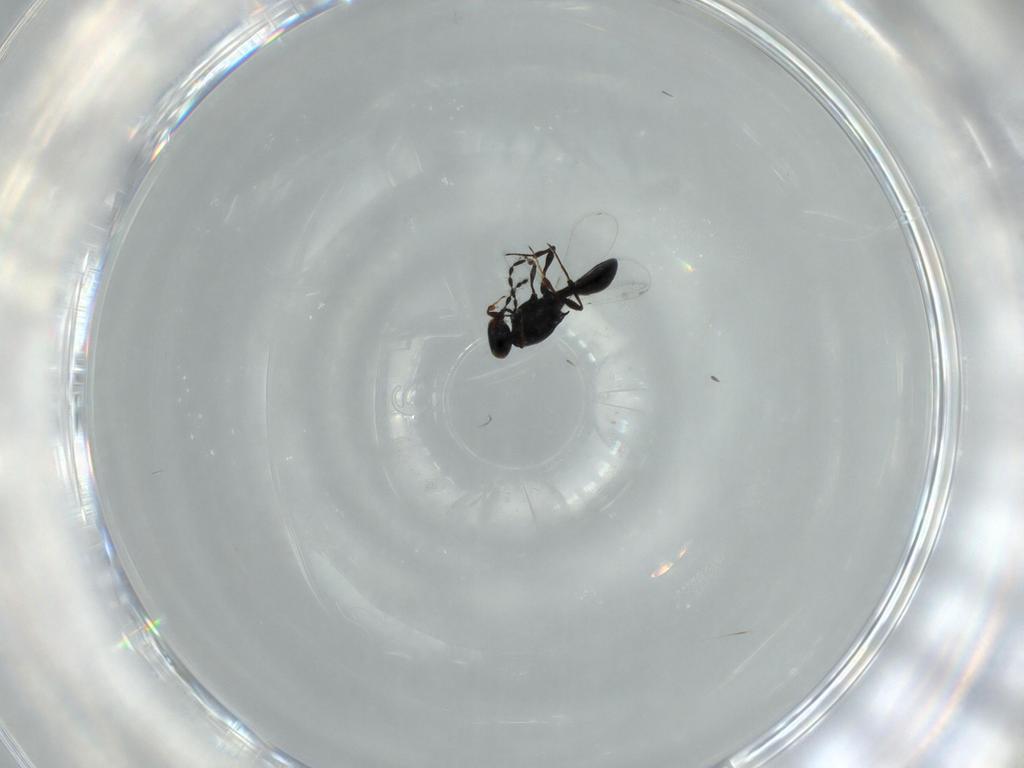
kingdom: Animalia
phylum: Arthropoda
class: Insecta
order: Hymenoptera
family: Platygastridae
